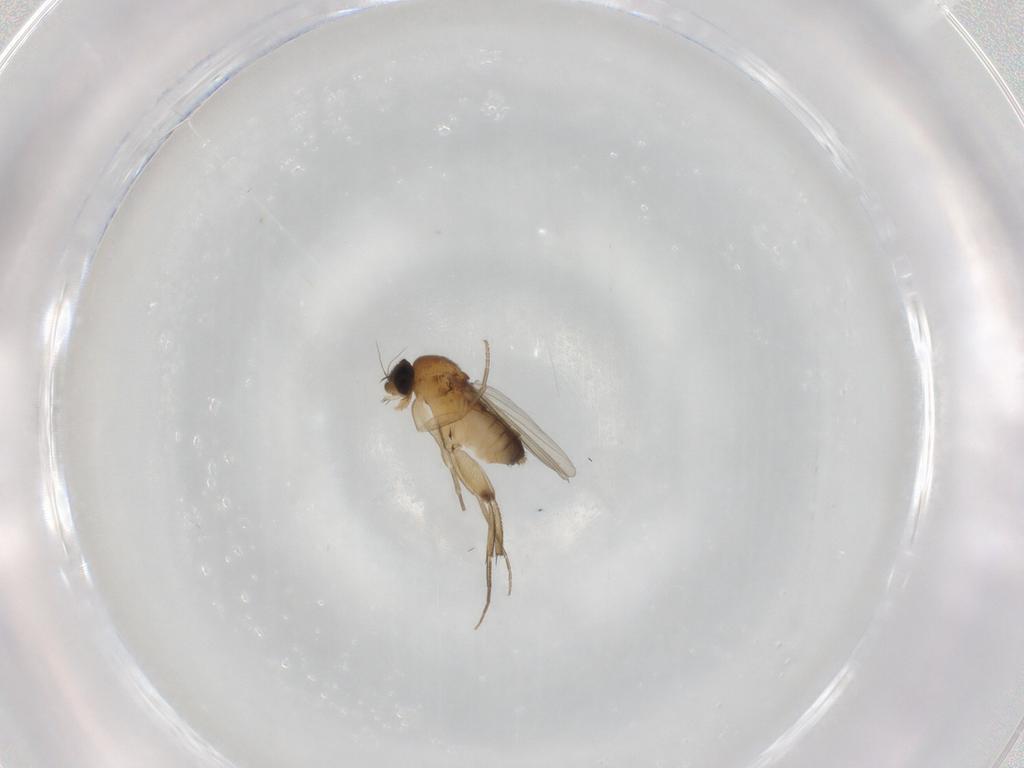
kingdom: Animalia
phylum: Arthropoda
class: Insecta
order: Diptera
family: Phoridae
